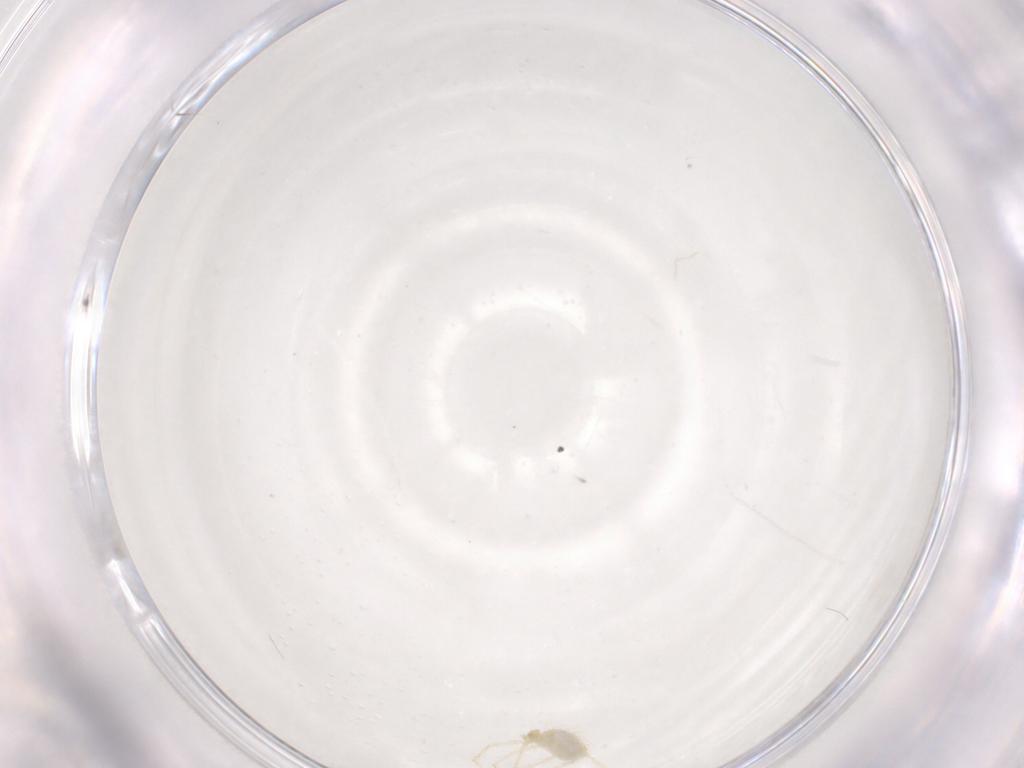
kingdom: Animalia
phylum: Arthropoda
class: Arachnida
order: Trombidiformes
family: Erythraeidae
